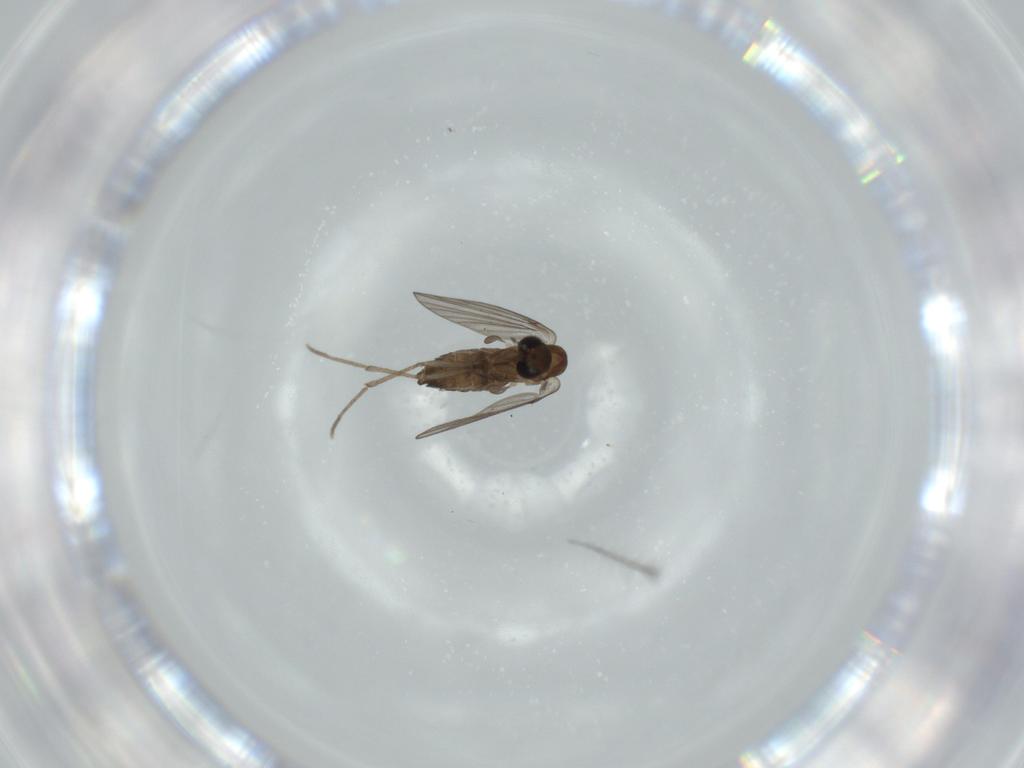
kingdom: Animalia
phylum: Arthropoda
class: Insecta
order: Diptera
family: Psychodidae
